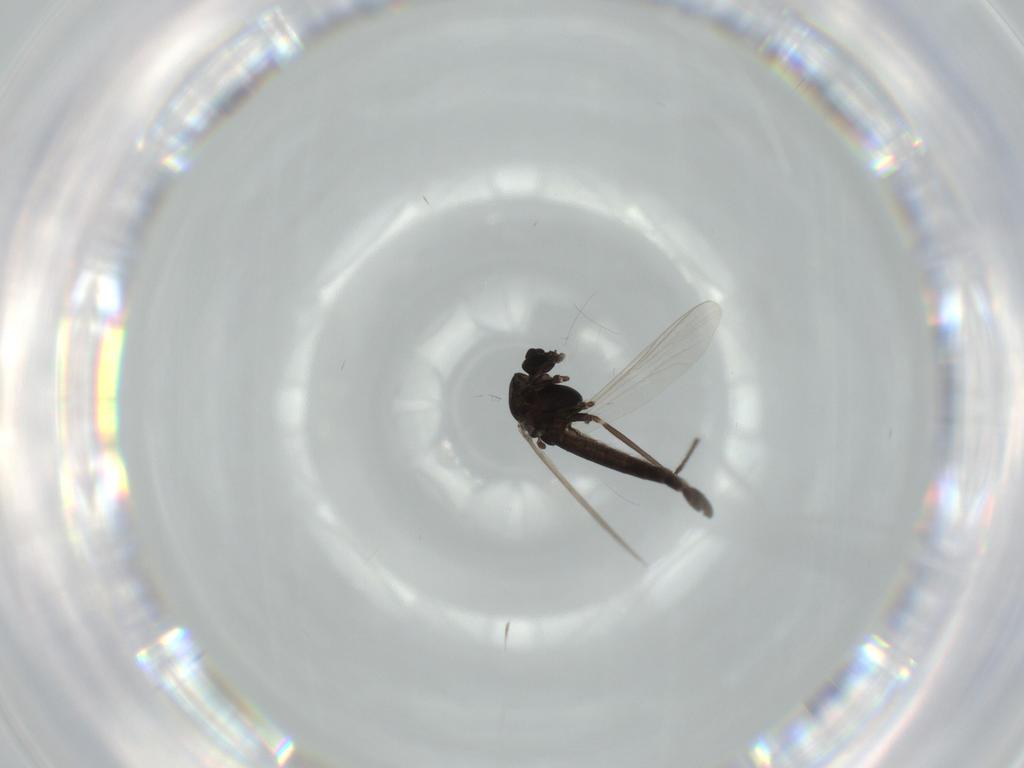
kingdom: Animalia
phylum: Arthropoda
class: Insecta
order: Diptera
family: Chironomidae
